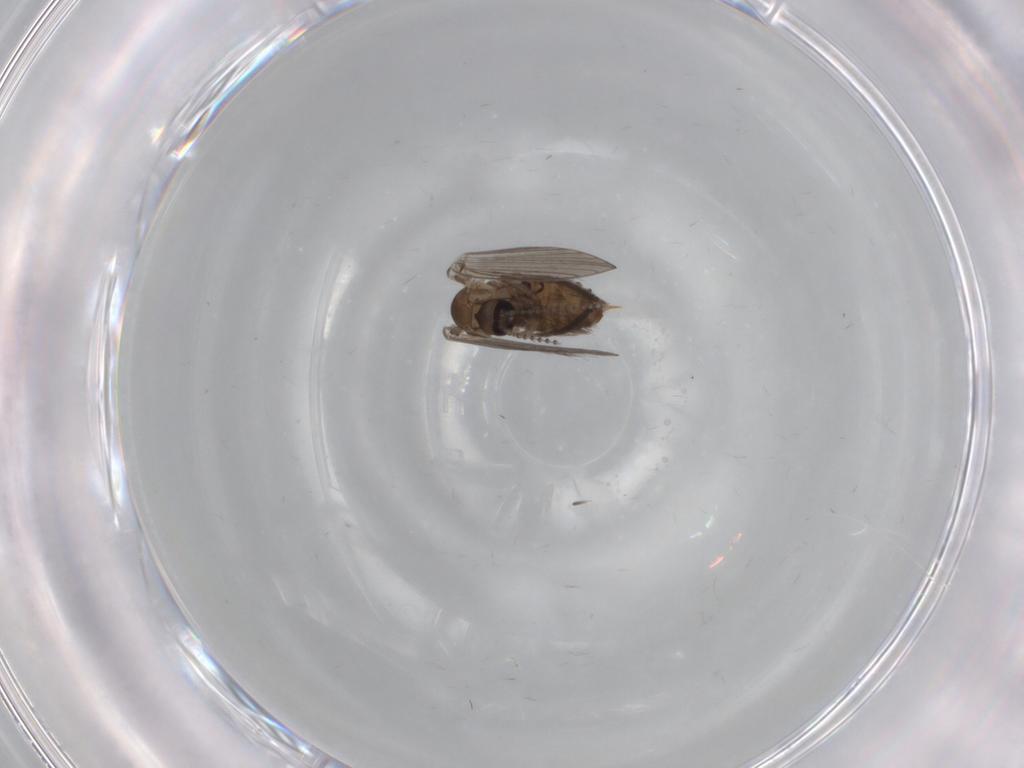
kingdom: Animalia
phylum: Arthropoda
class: Insecta
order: Diptera
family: Psychodidae
